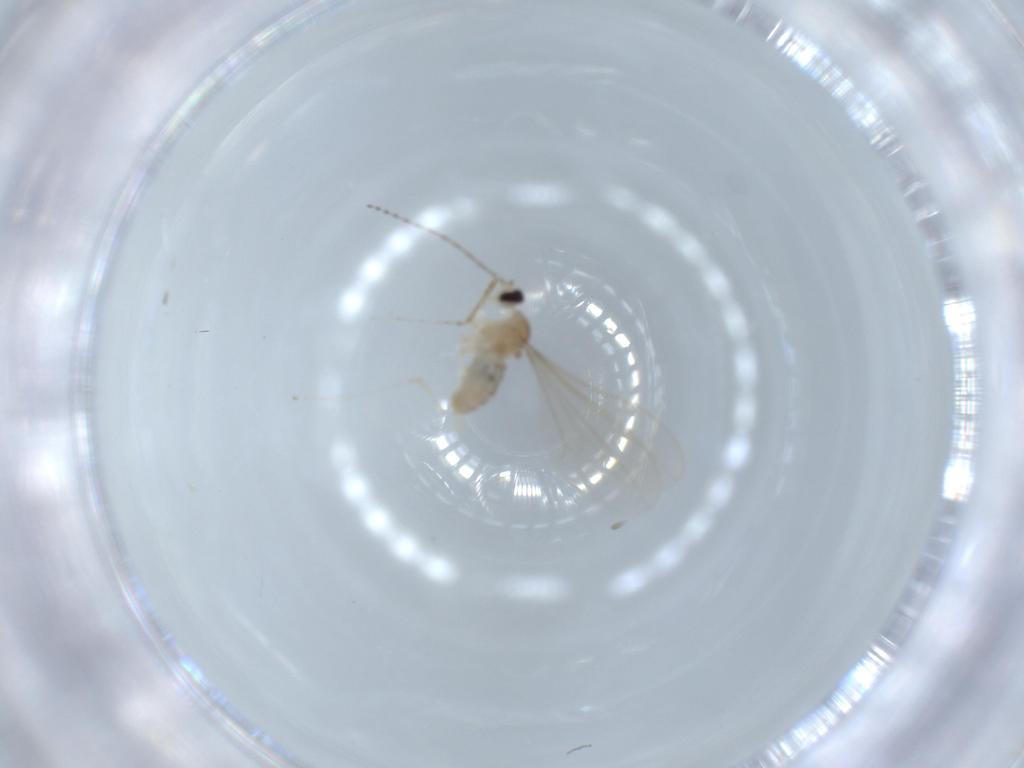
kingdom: Animalia
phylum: Arthropoda
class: Insecta
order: Diptera
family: Cecidomyiidae
